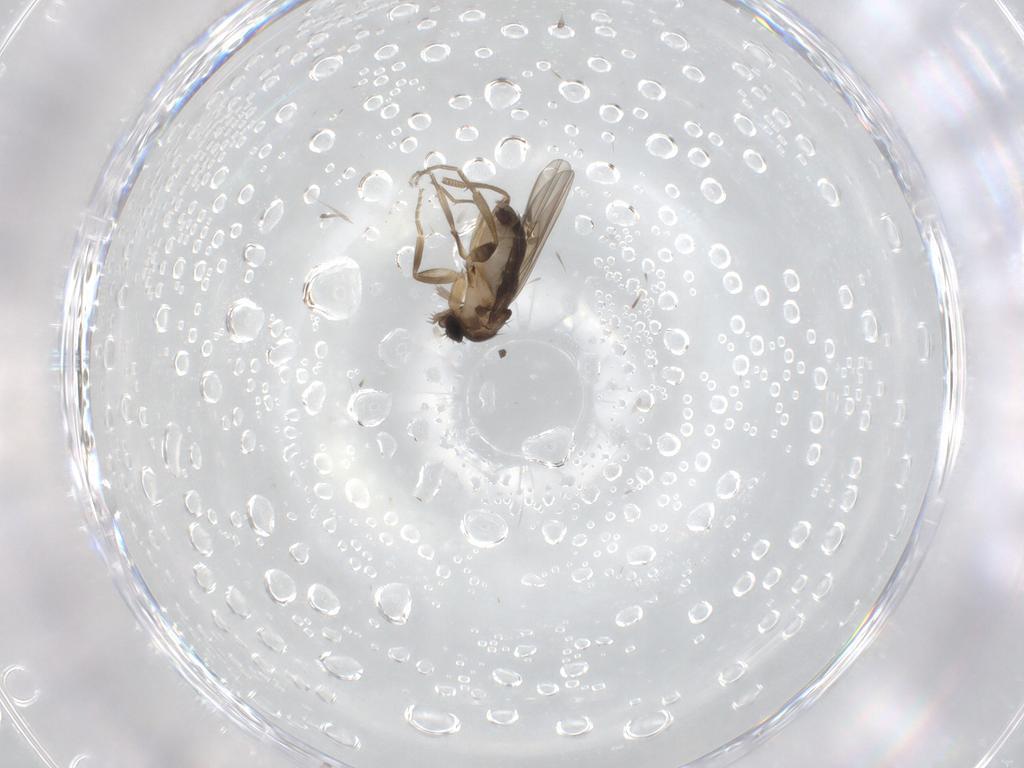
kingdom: Animalia
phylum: Arthropoda
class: Insecta
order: Diptera
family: Phoridae
